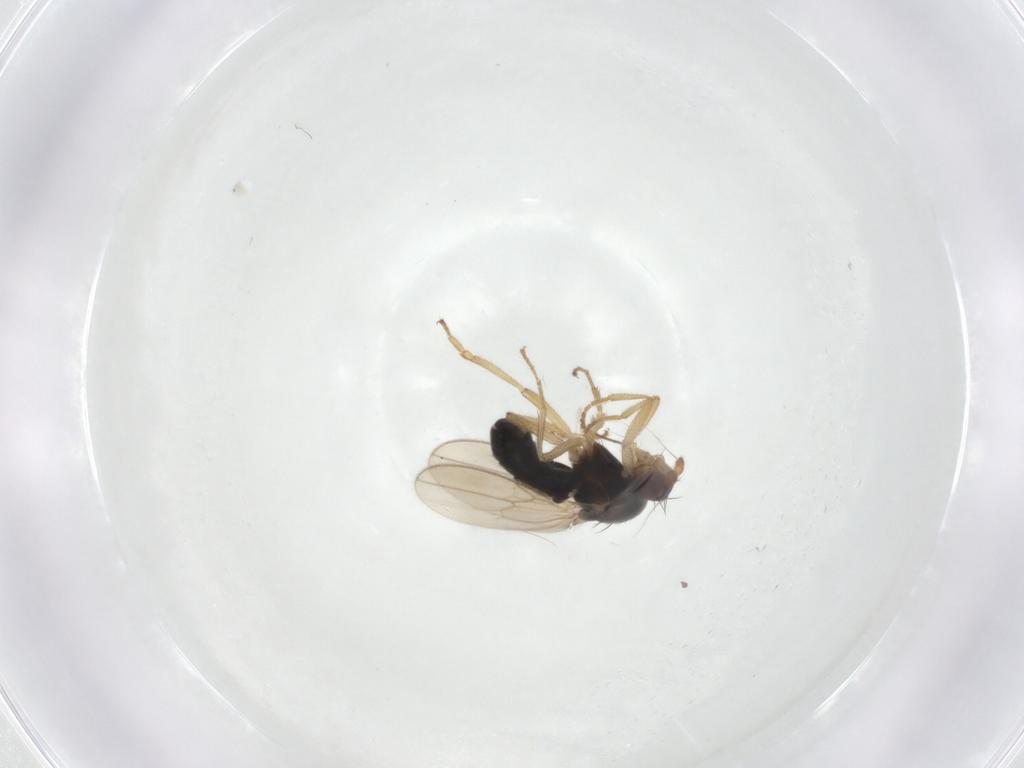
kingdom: Animalia
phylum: Arthropoda
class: Insecta
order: Diptera
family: Sphaeroceridae
